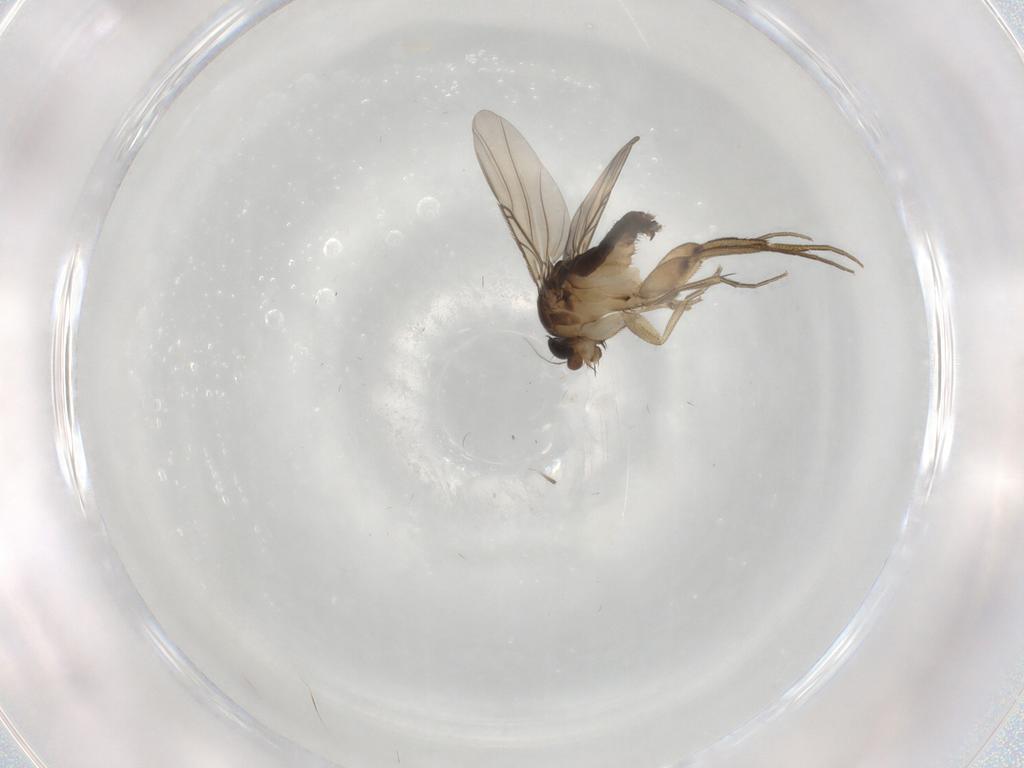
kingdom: Animalia
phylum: Arthropoda
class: Insecta
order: Diptera
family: Phoridae
